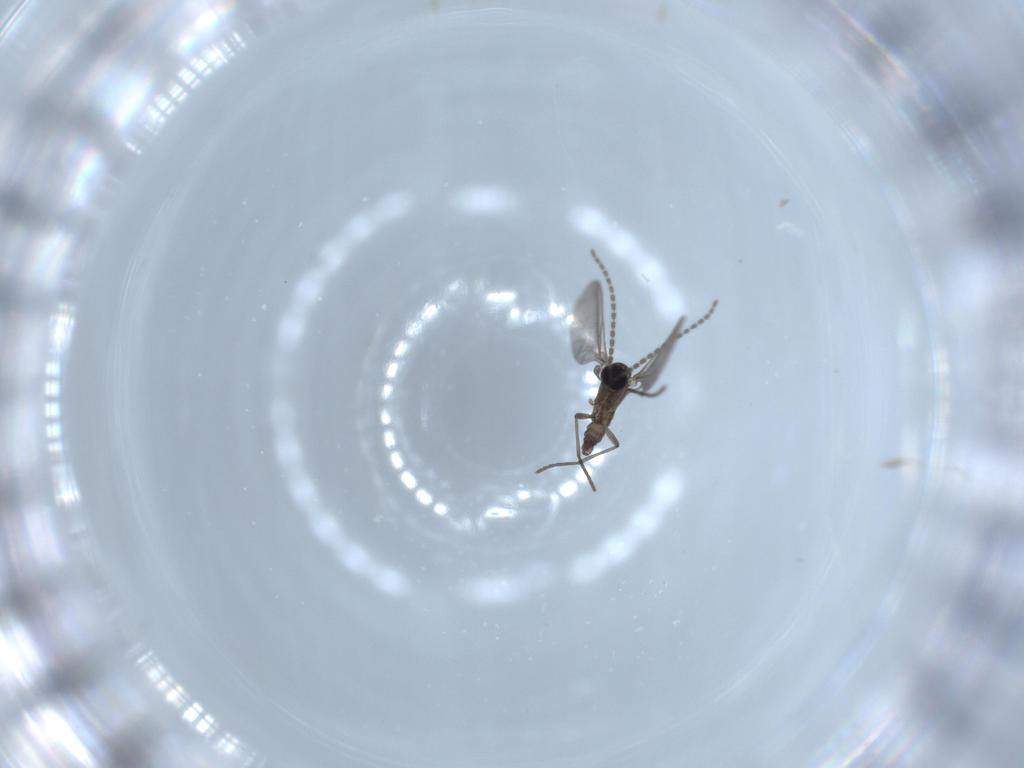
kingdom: Animalia
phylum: Arthropoda
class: Insecta
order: Diptera
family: Sciaridae
